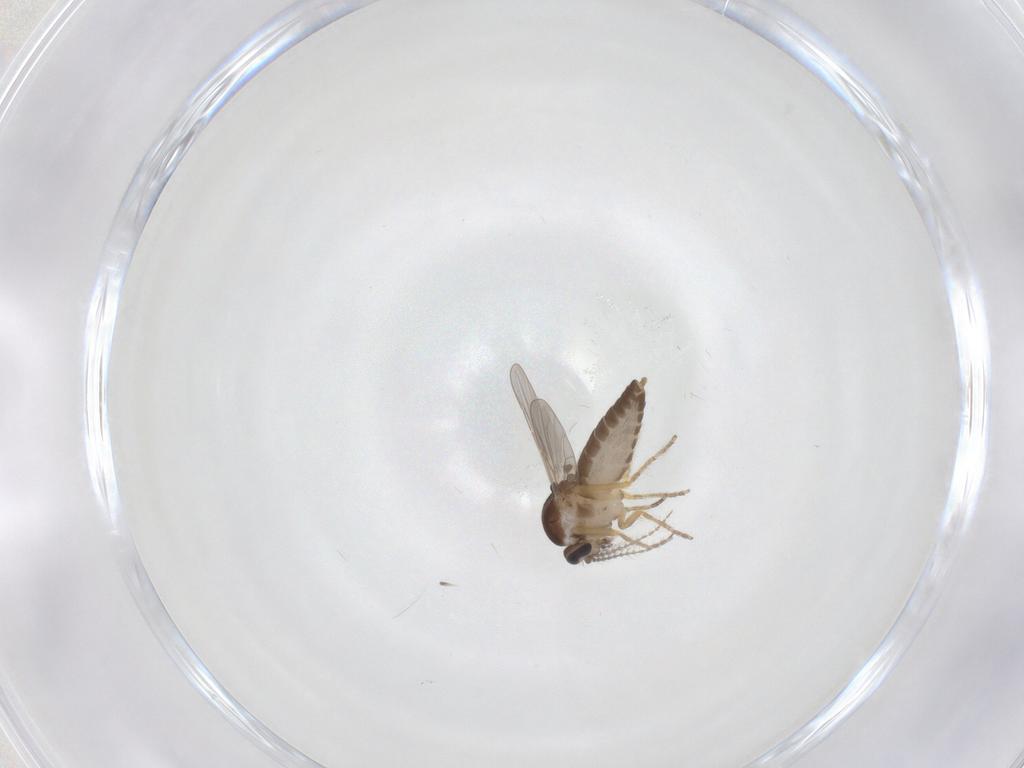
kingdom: Animalia
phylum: Arthropoda
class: Insecta
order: Diptera
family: Ceratopogonidae
